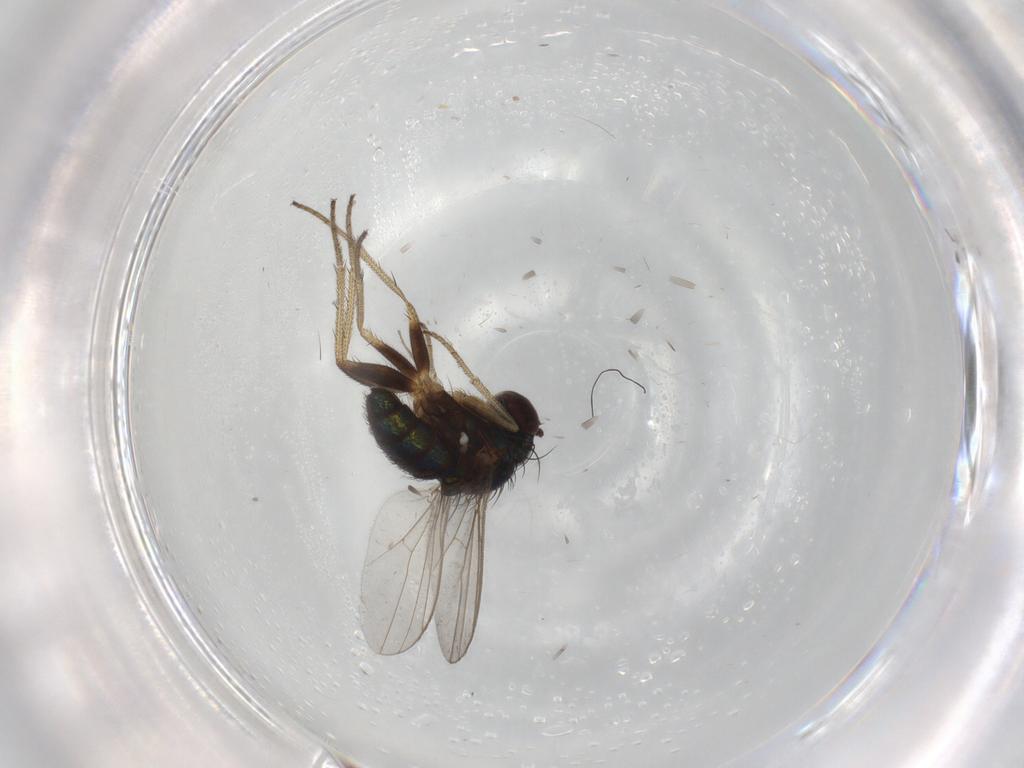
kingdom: Animalia
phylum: Arthropoda
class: Insecta
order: Diptera
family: Dolichopodidae
